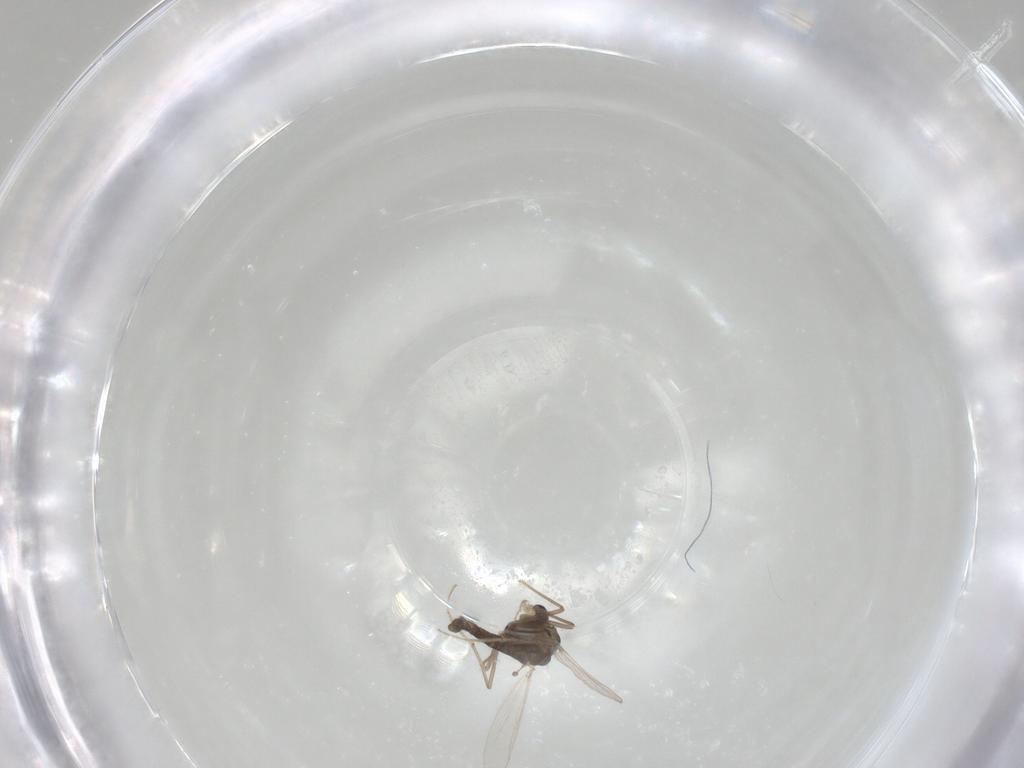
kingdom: Animalia
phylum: Arthropoda
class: Insecta
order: Diptera
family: Chironomidae
